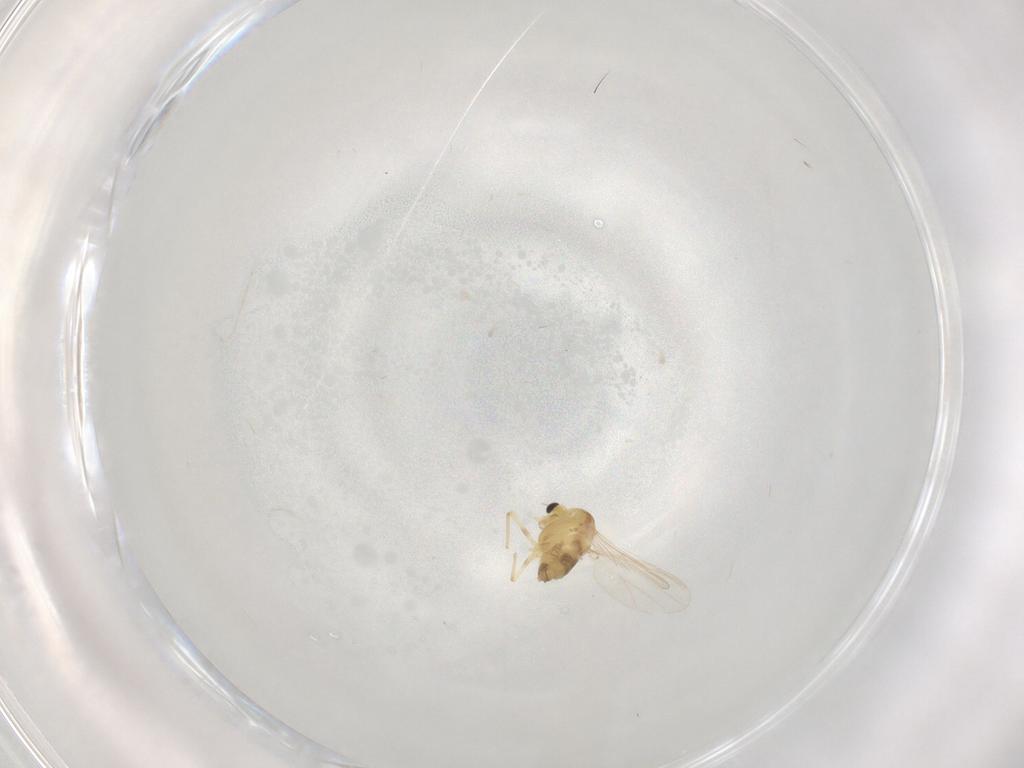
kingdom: Animalia
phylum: Arthropoda
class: Insecta
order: Diptera
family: Chironomidae
